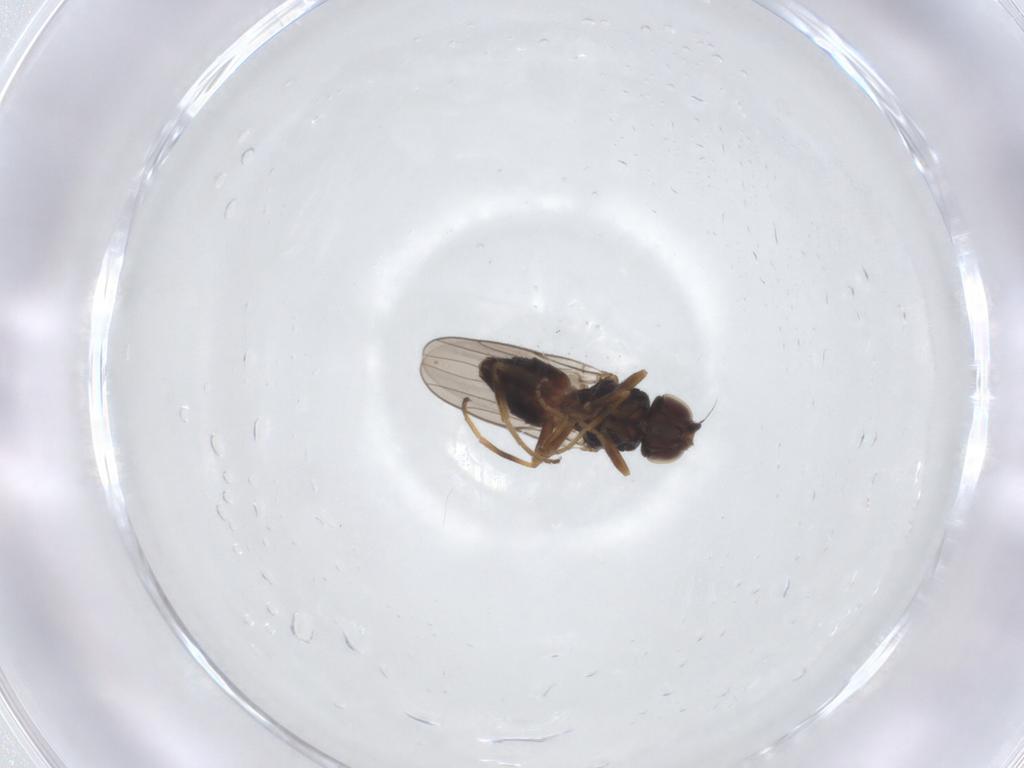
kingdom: Animalia
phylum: Arthropoda
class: Insecta
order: Diptera
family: Chloropidae
